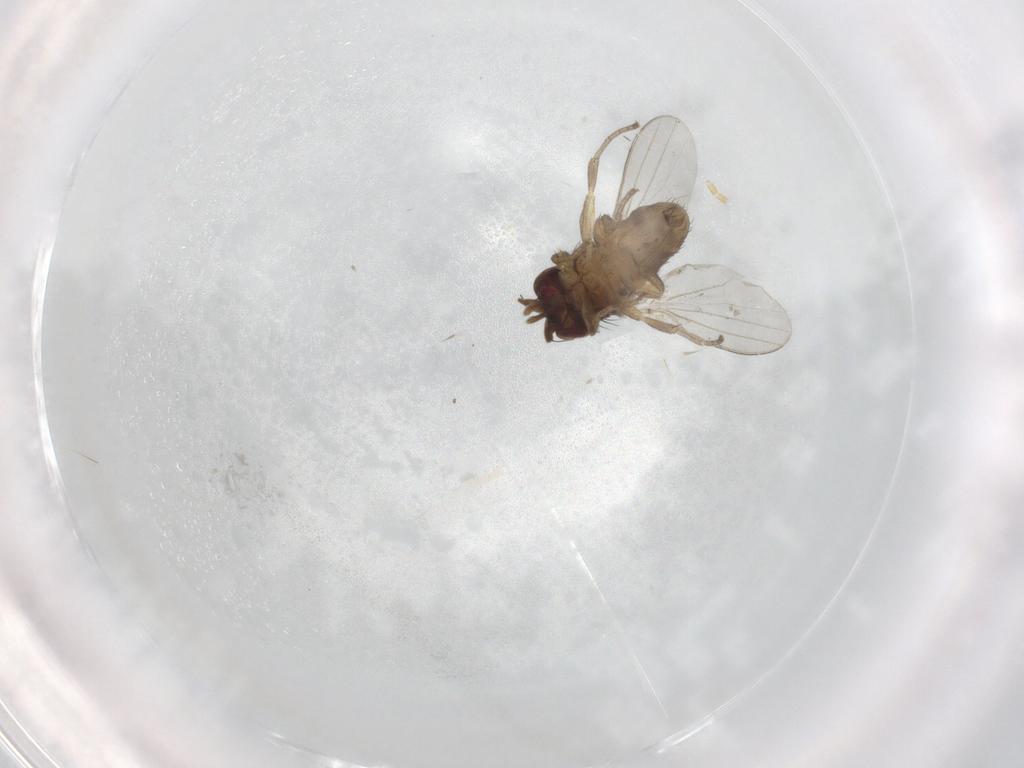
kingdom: Animalia
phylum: Arthropoda
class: Insecta
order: Diptera
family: Milichiidae
